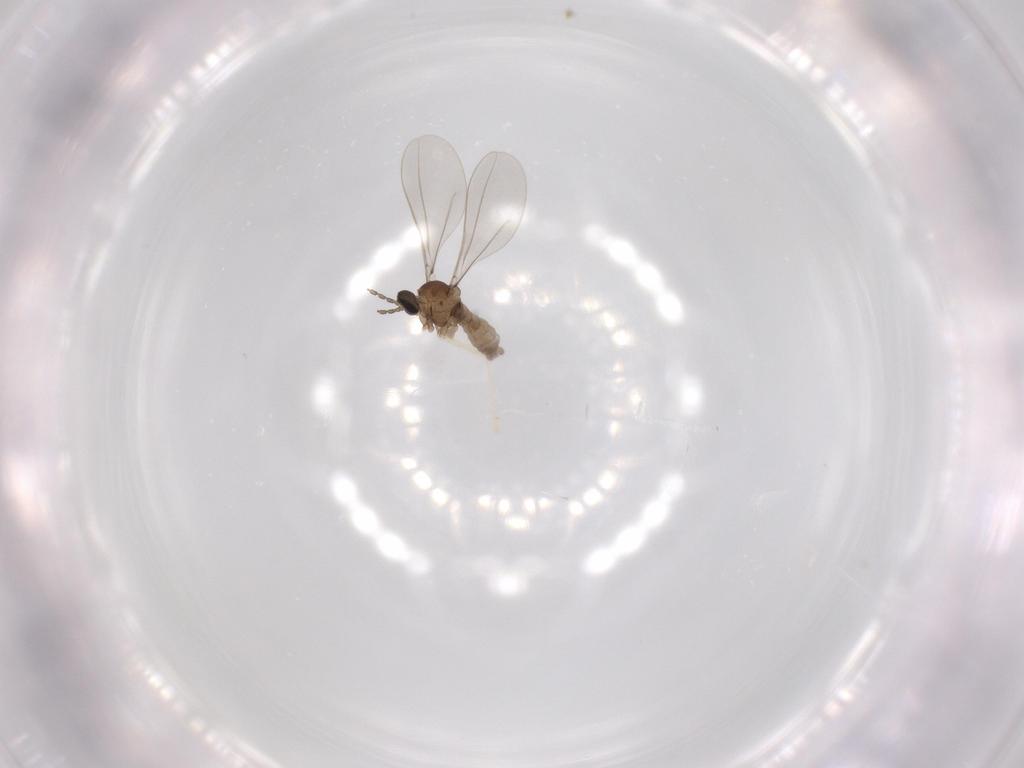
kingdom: Animalia
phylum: Arthropoda
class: Insecta
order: Diptera
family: Cecidomyiidae
